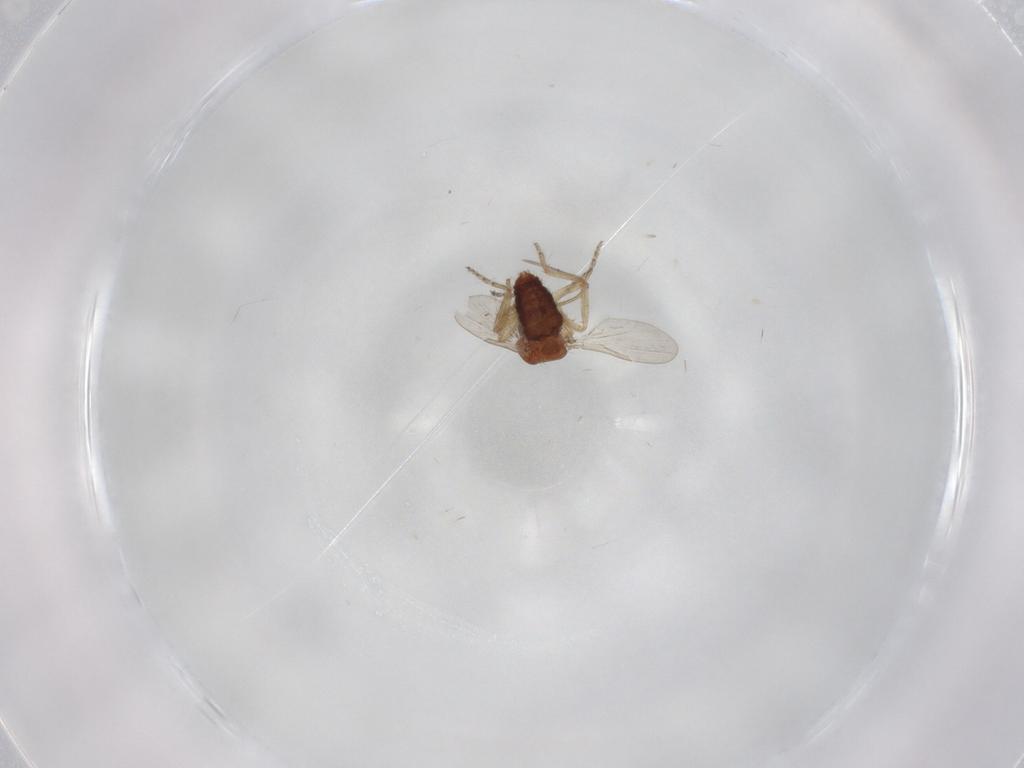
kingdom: Animalia
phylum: Arthropoda
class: Insecta
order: Diptera
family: Ceratopogonidae
